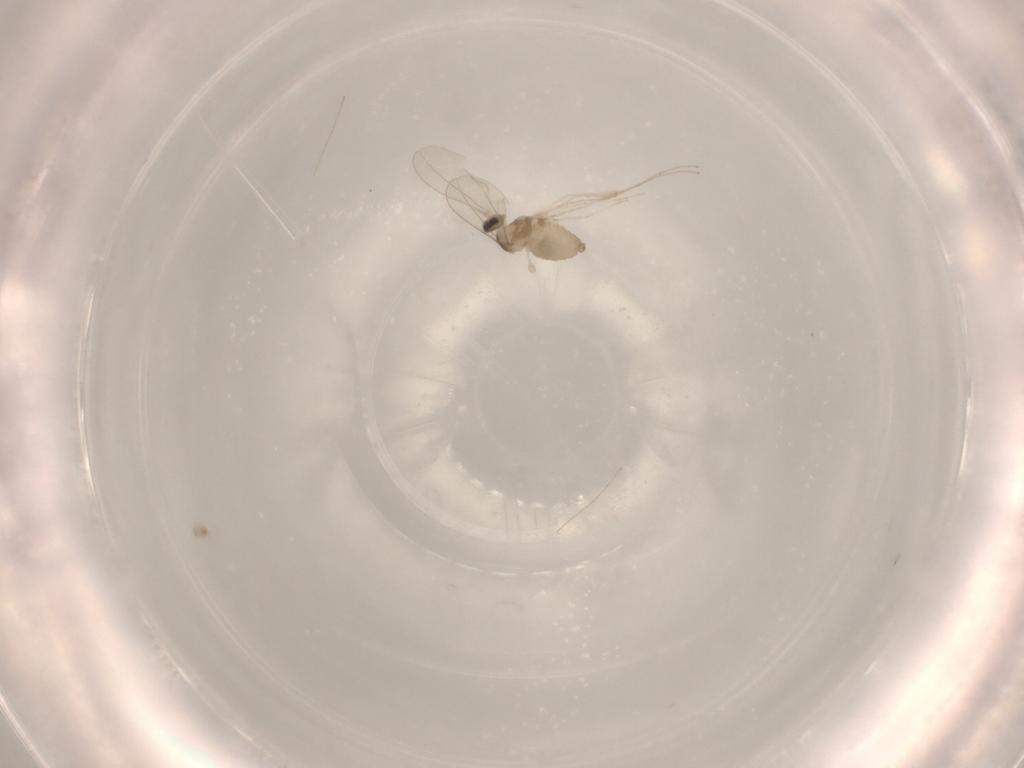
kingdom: Animalia
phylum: Arthropoda
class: Insecta
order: Diptera
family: Cecidomyiidae
